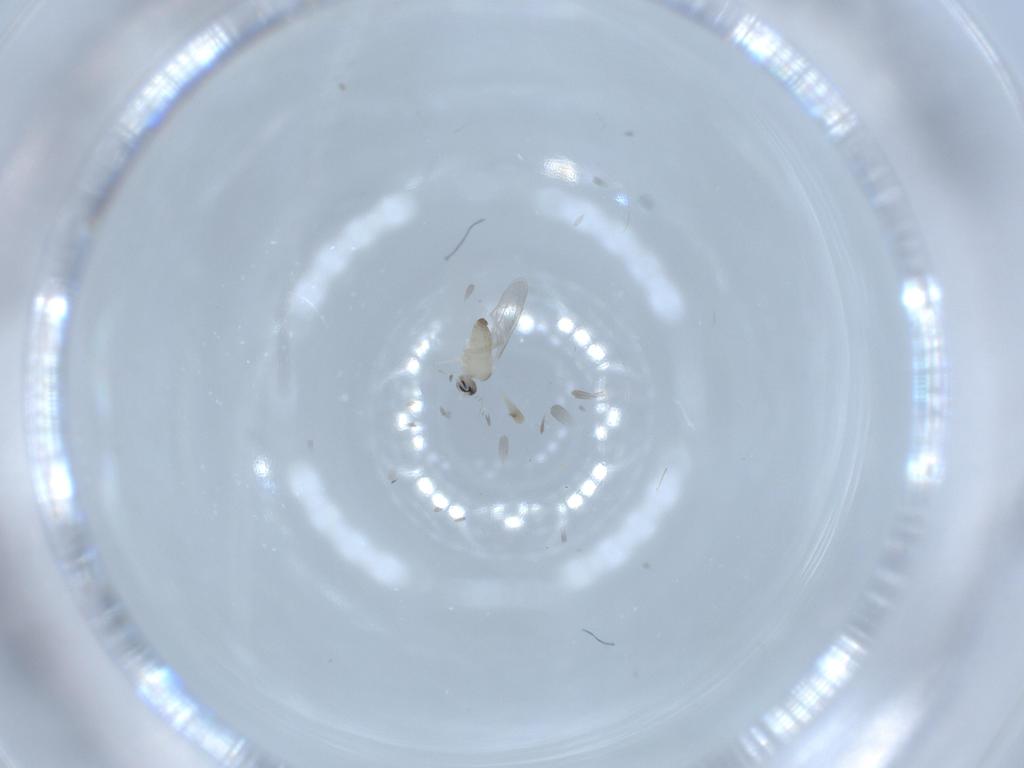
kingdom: Animalia
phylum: Arthropoda
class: Insecta
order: Diptera
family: Cecidomyiidae
